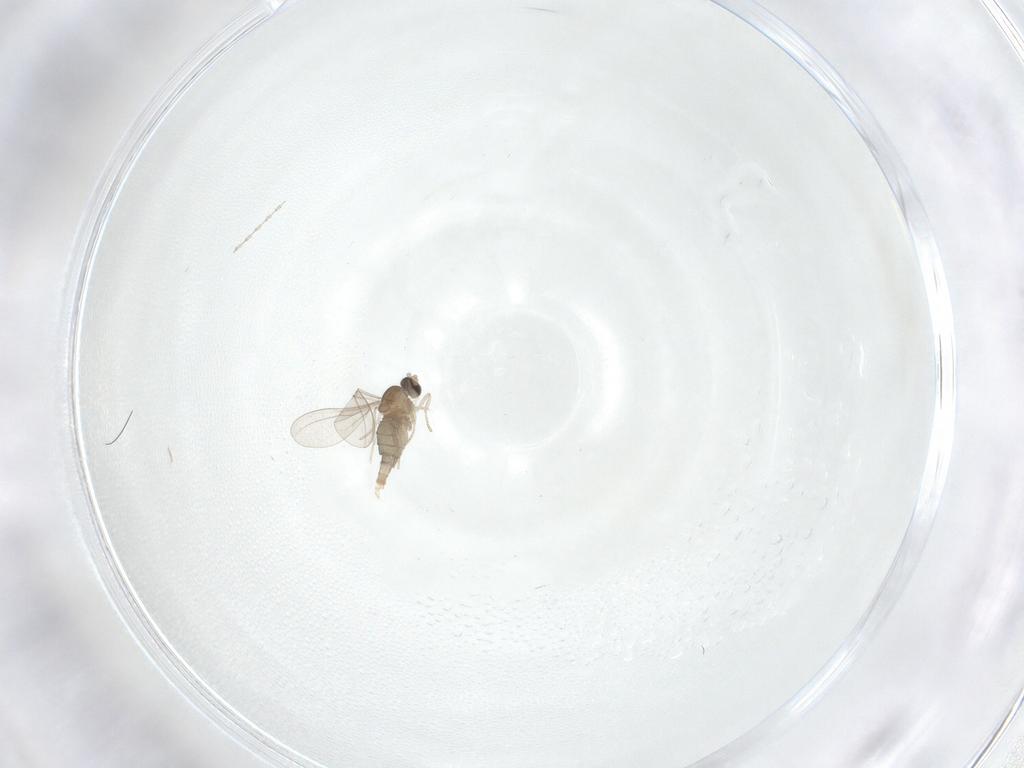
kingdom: Animalia
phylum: Arthropoda
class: Insecta
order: Diptera
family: Cecidomyiidae
